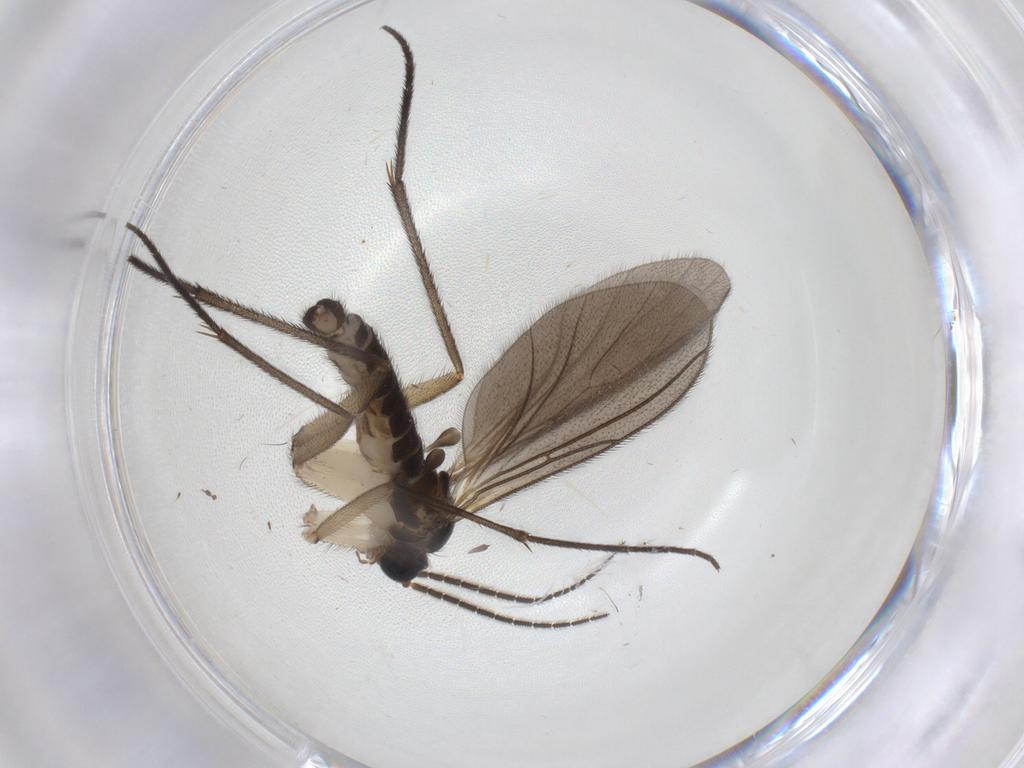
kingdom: Animalia
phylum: Arthropoda
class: Insecta
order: Diptera
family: Sciaridae
